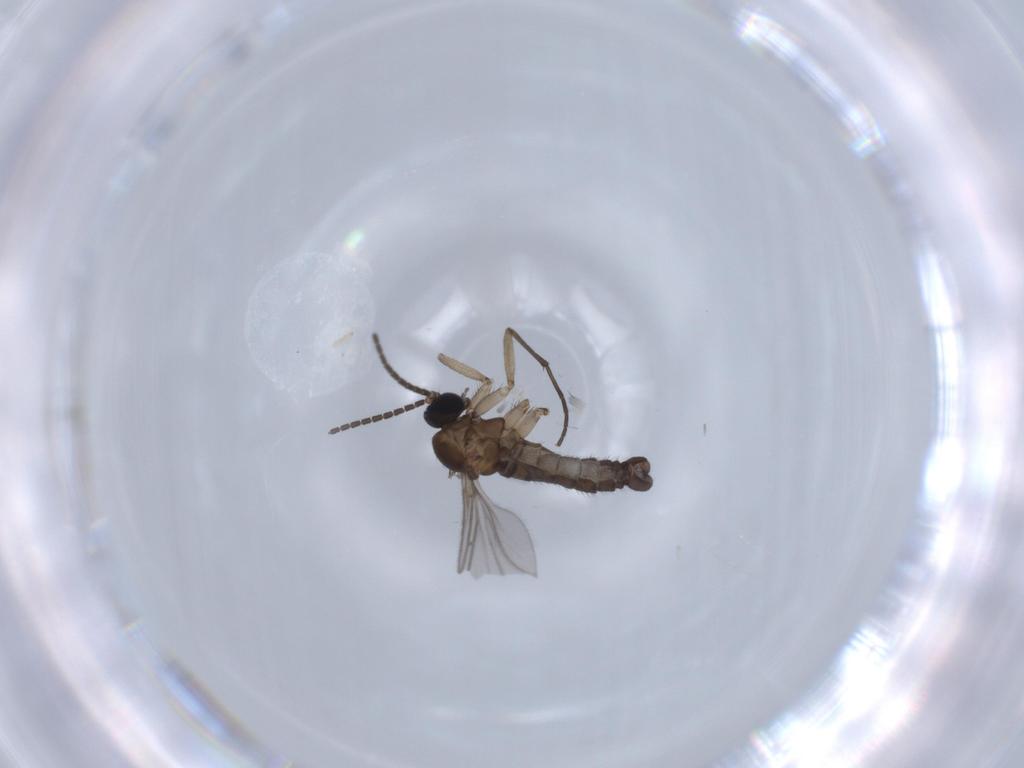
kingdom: Animalia
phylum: Arthropoda
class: Insecta
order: Diptera
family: Sciaridae
